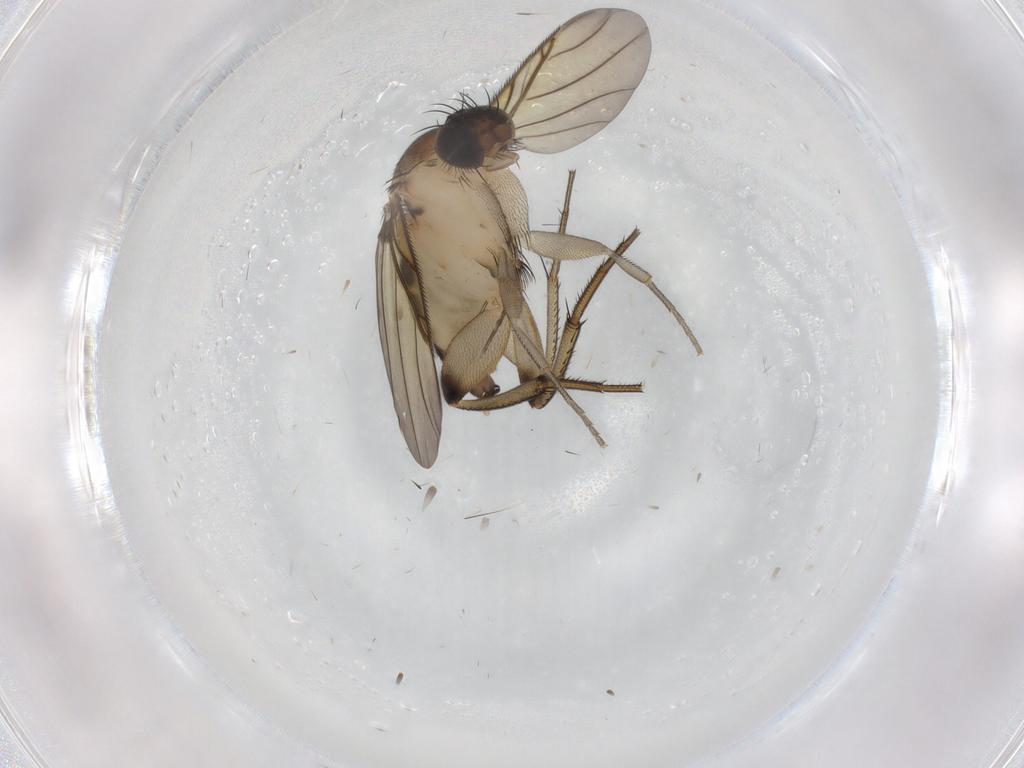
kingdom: Animalia
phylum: Arthropoda
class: Insecta
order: Diptera
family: Phoridae
